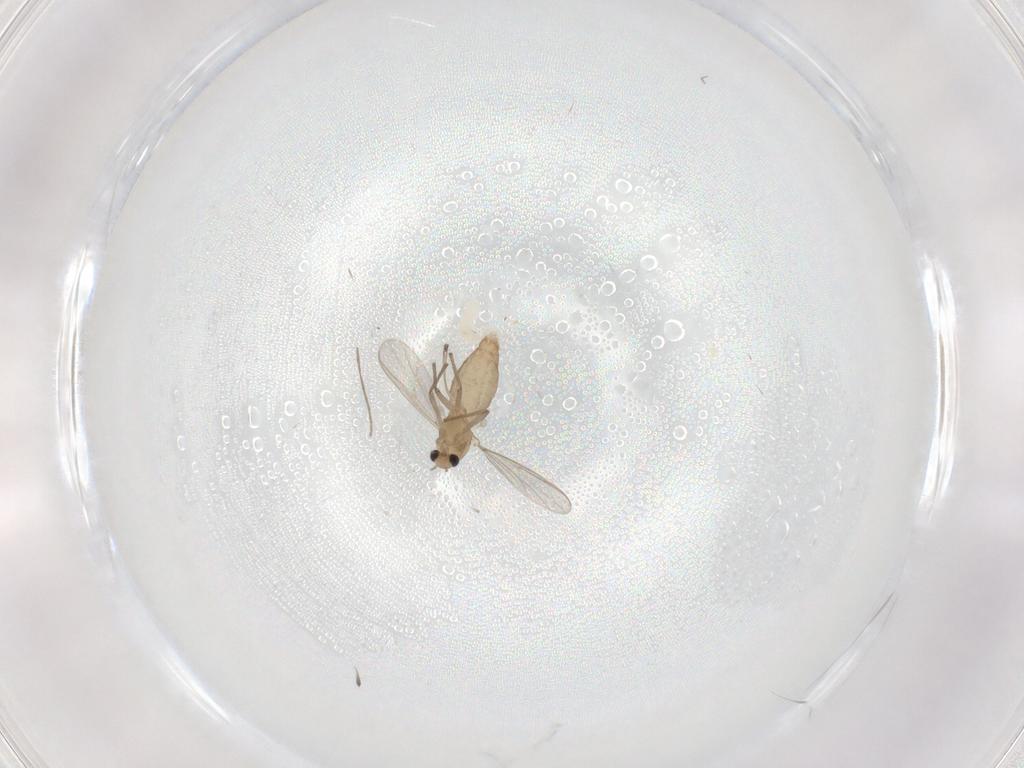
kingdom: Animalia
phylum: Arthropoda
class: Insecta
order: Diptera
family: Chironomidae
